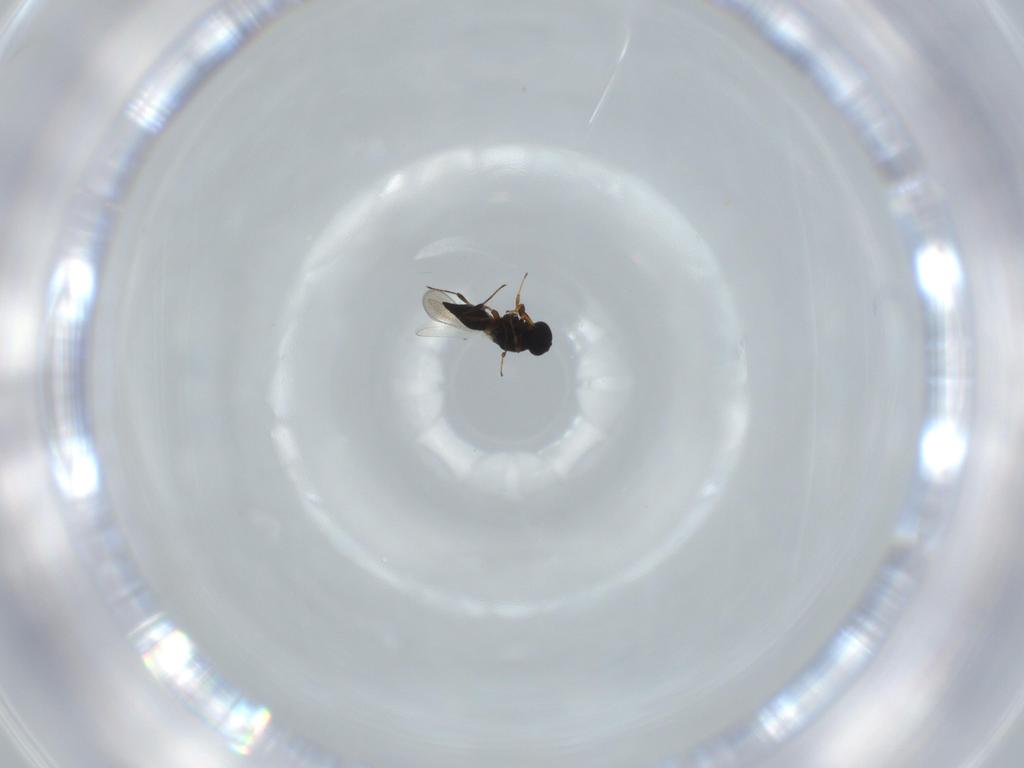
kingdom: Animalia
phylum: Arthropoda
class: Insecta
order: Hymenoptera
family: Platygastridae
